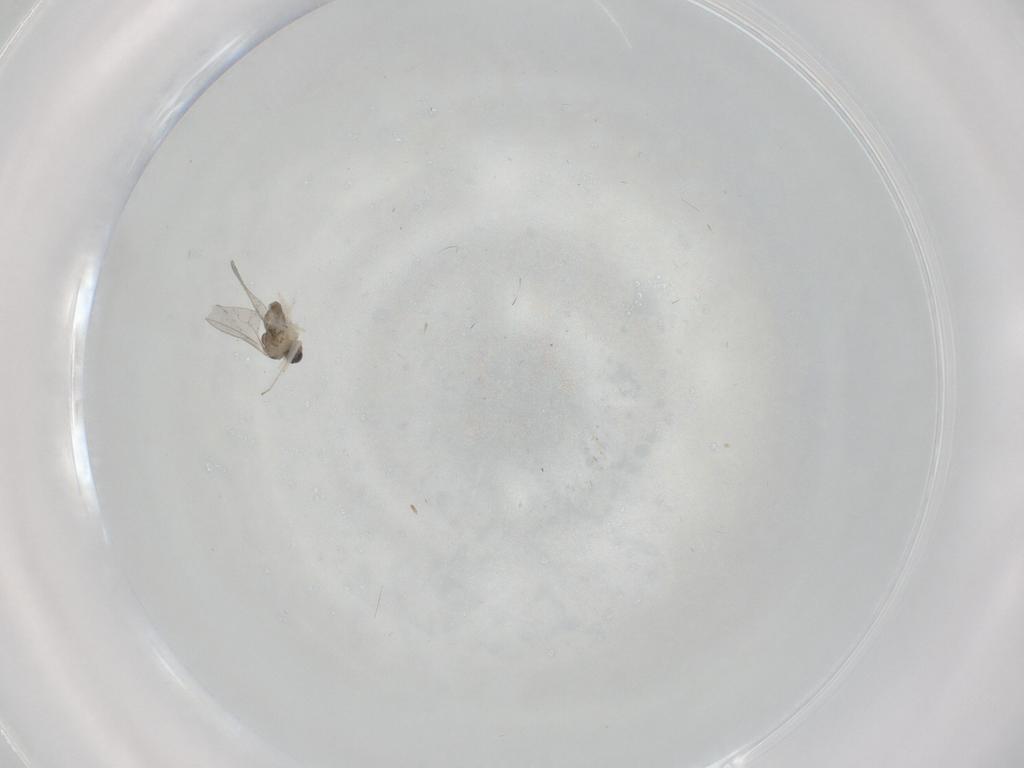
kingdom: Animalia
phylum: Arthropoda
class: Insecta
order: Diptera
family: Cecidomyiidae
